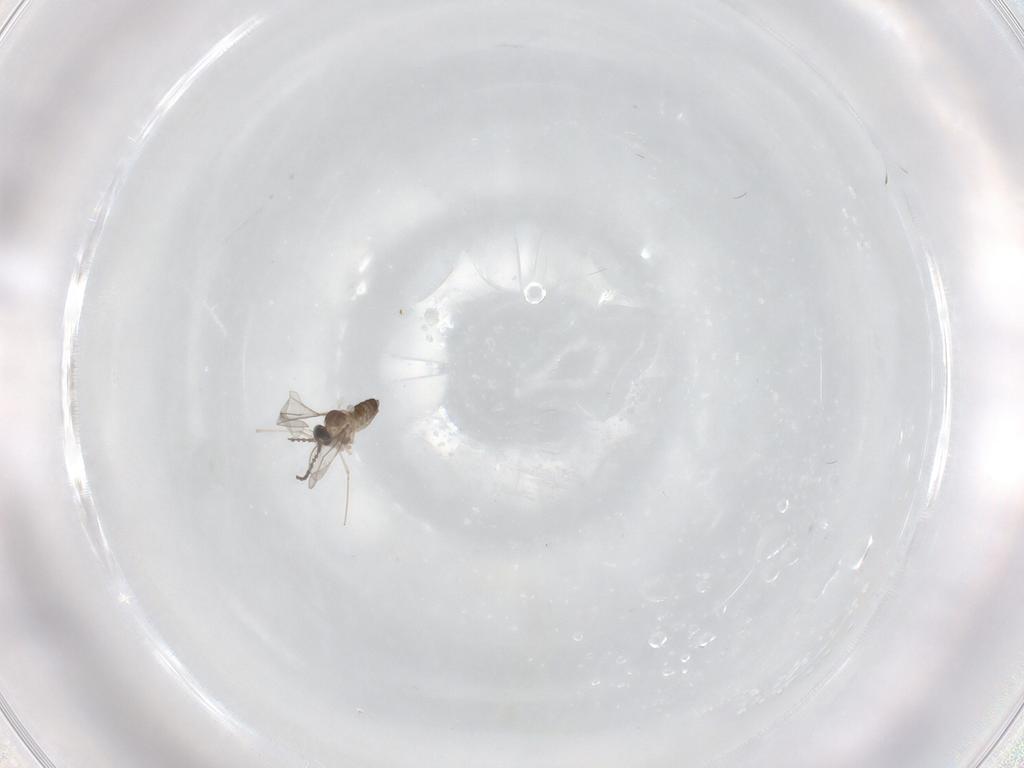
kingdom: Animalia
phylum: Arthropoda
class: Insecta
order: Diptera
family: Cecidomyiidae
